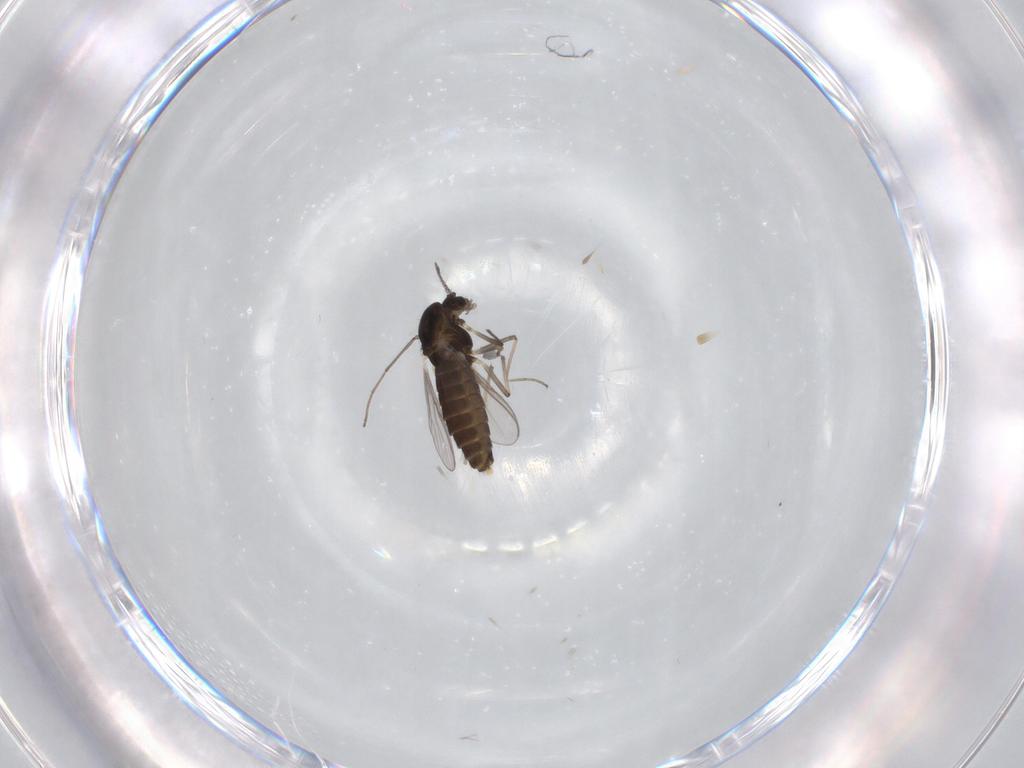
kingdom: Animalia
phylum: Arthropoda
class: Insecta
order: Diptera
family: Chironomidae
